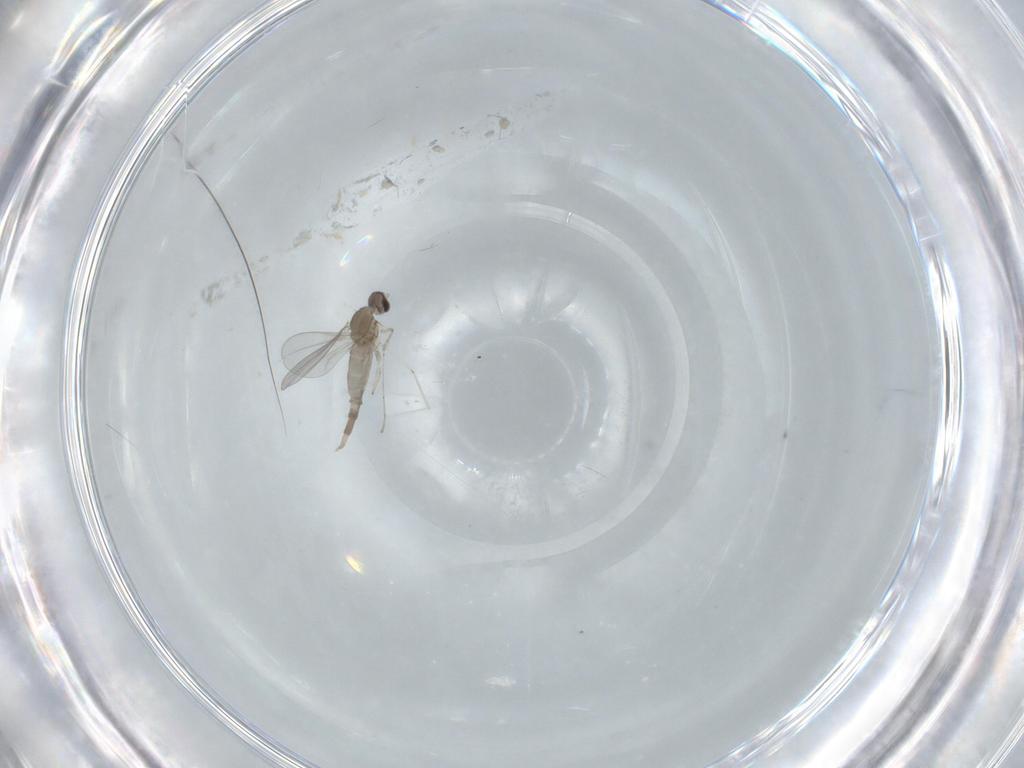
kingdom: Animalia
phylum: Arthropoda
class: Insecta
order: Diptera
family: Cecidomyiidae
